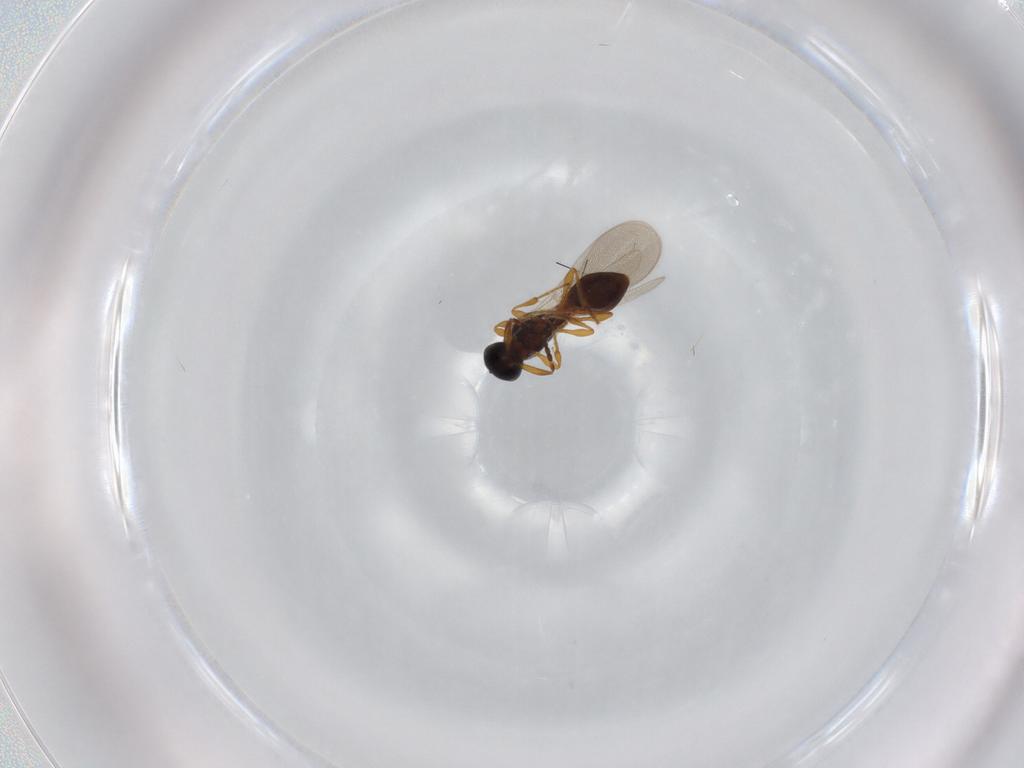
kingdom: Animalia
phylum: Arthropoda
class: Insecta
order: Hymenoptera
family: Platygastridae
